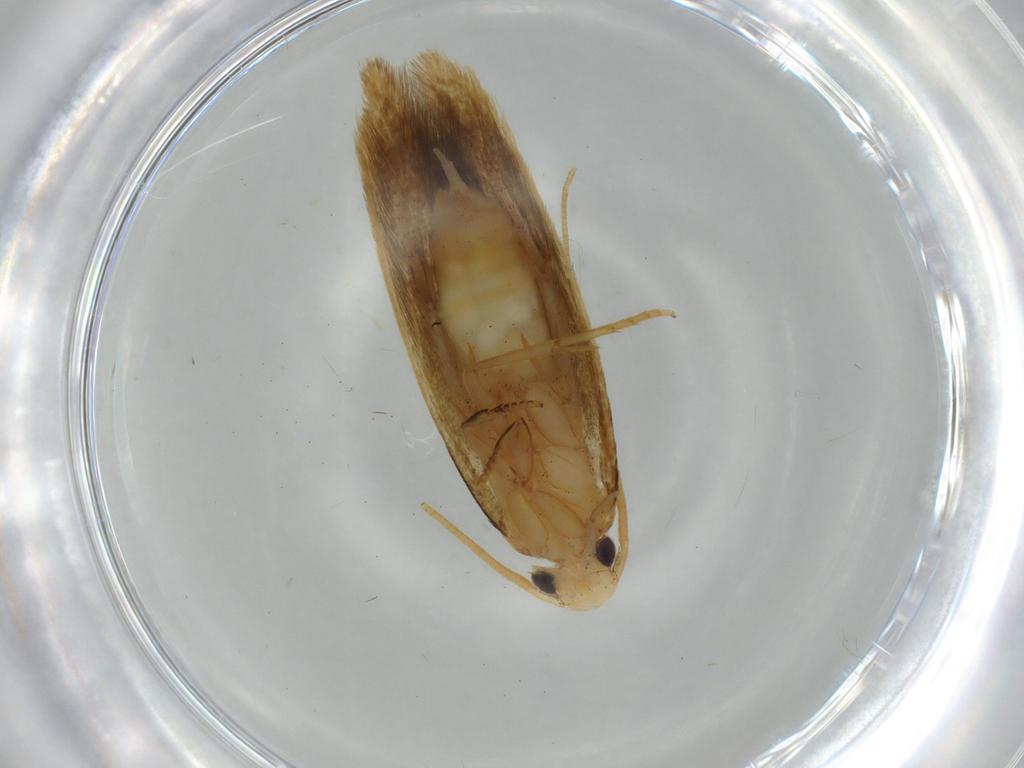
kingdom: Animalia
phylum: Arthropoda
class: Insecta
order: Lepidoptera
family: Tineidae
